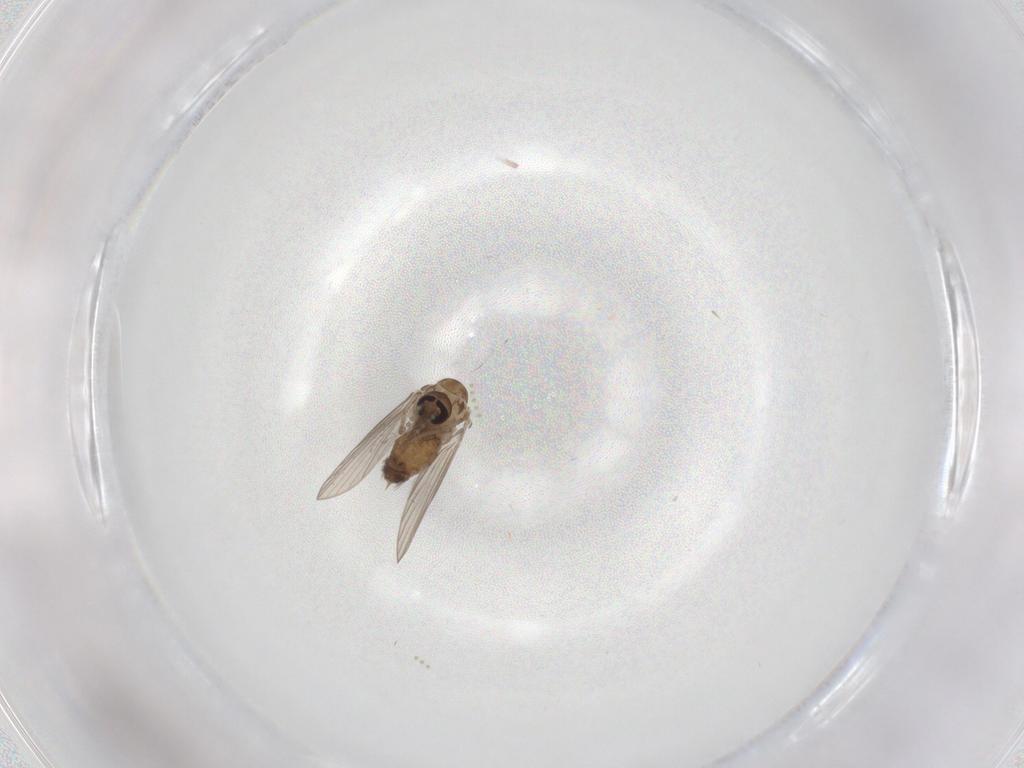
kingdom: Animalia
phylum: Arthropoda
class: Insecta
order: Diptera
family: Psychodidae
